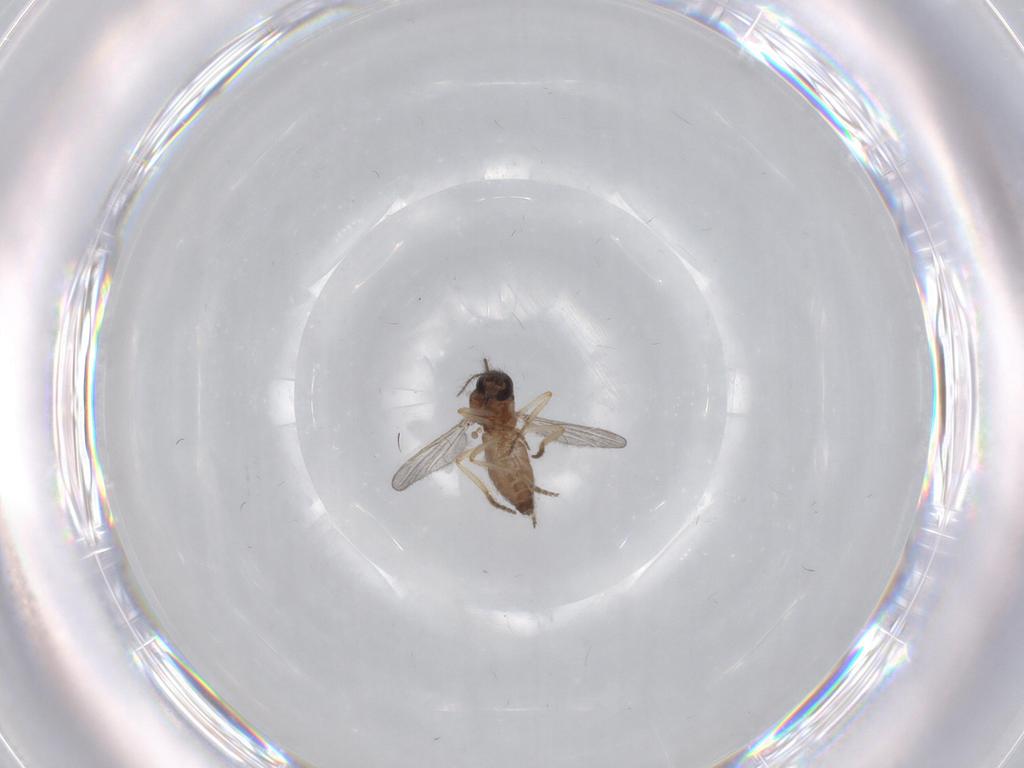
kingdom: Animalia
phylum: Arthropoda
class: Insecta
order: Diptera
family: Ceratopogonidae
